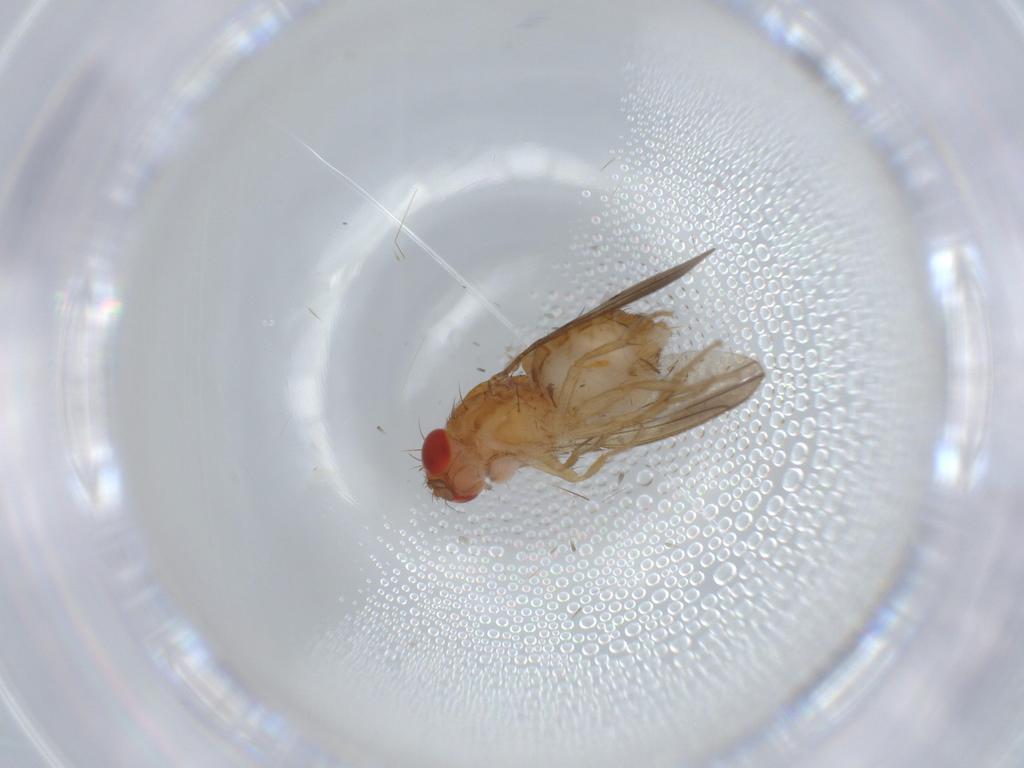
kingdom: Animalia
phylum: Arthropoda
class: Insecta
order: Diptera
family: Drosophilidae
